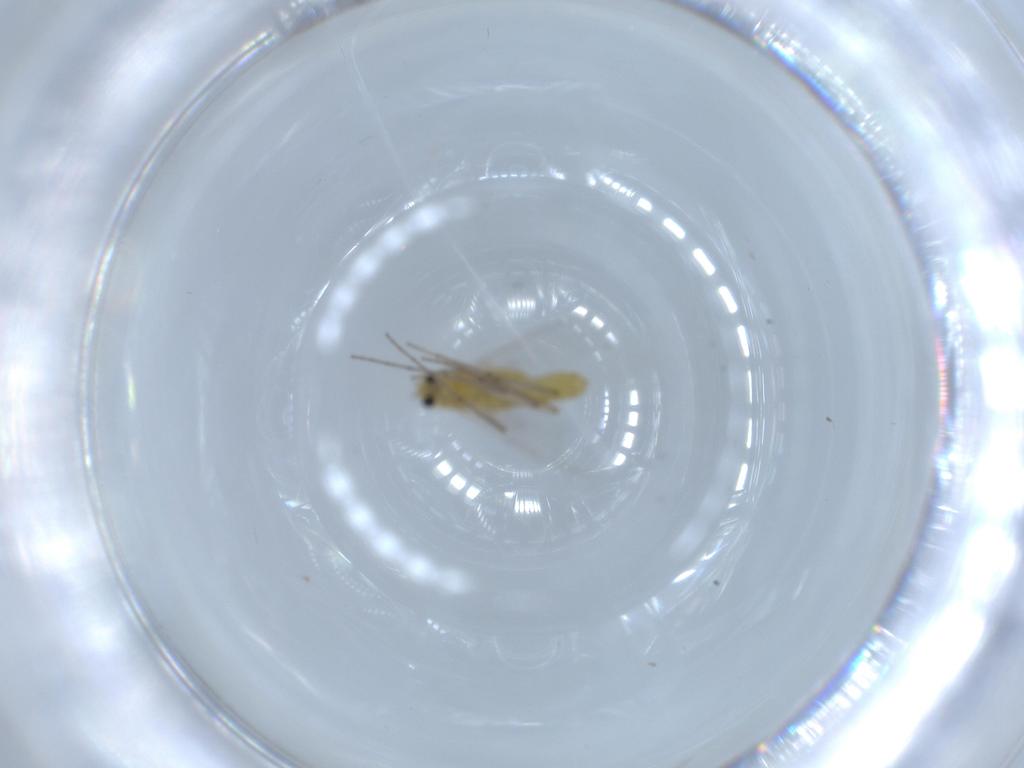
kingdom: Animalia
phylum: Arthropoda
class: Insecta
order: Diptera
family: Chironomidae
